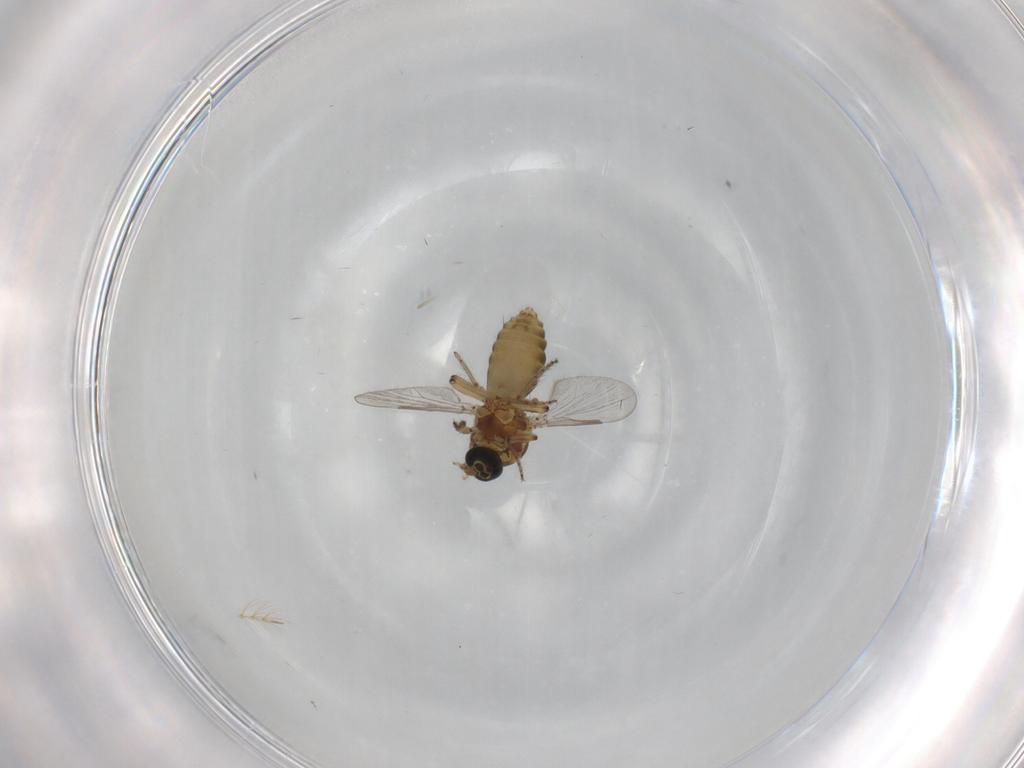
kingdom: Animalia
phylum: Arthropoda
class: Insecta
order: Diptera
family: Ceratopogonidae
